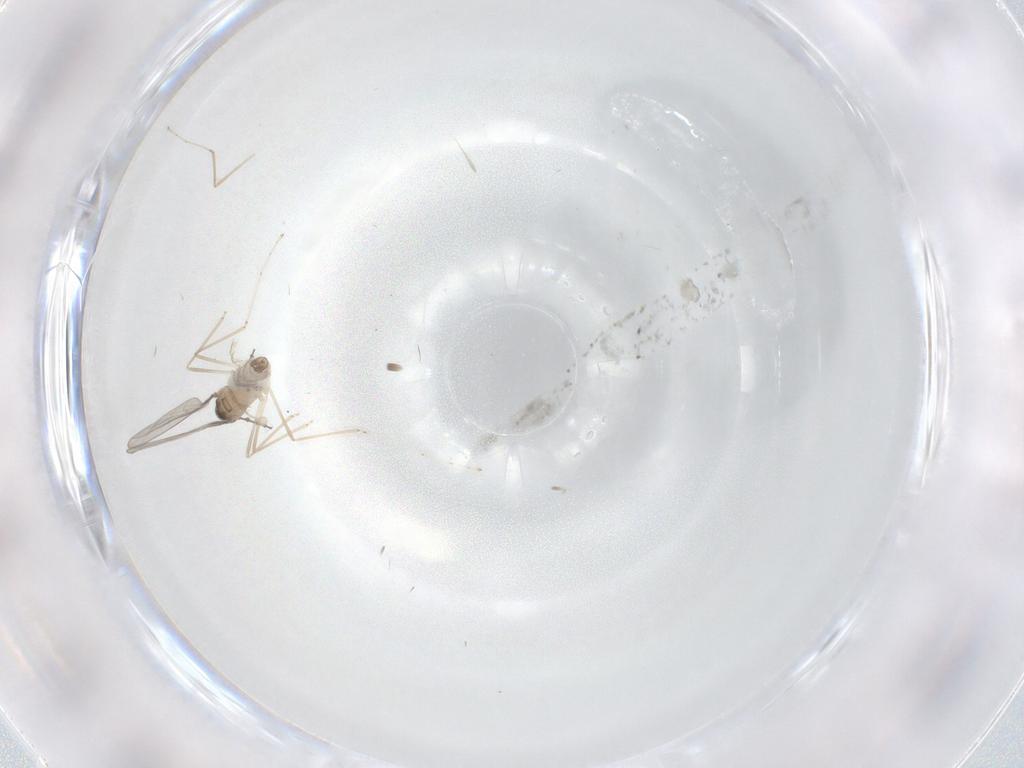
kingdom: Animalia
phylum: Arthropoda
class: Insecta
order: Diptera
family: Cecidomyiidae
